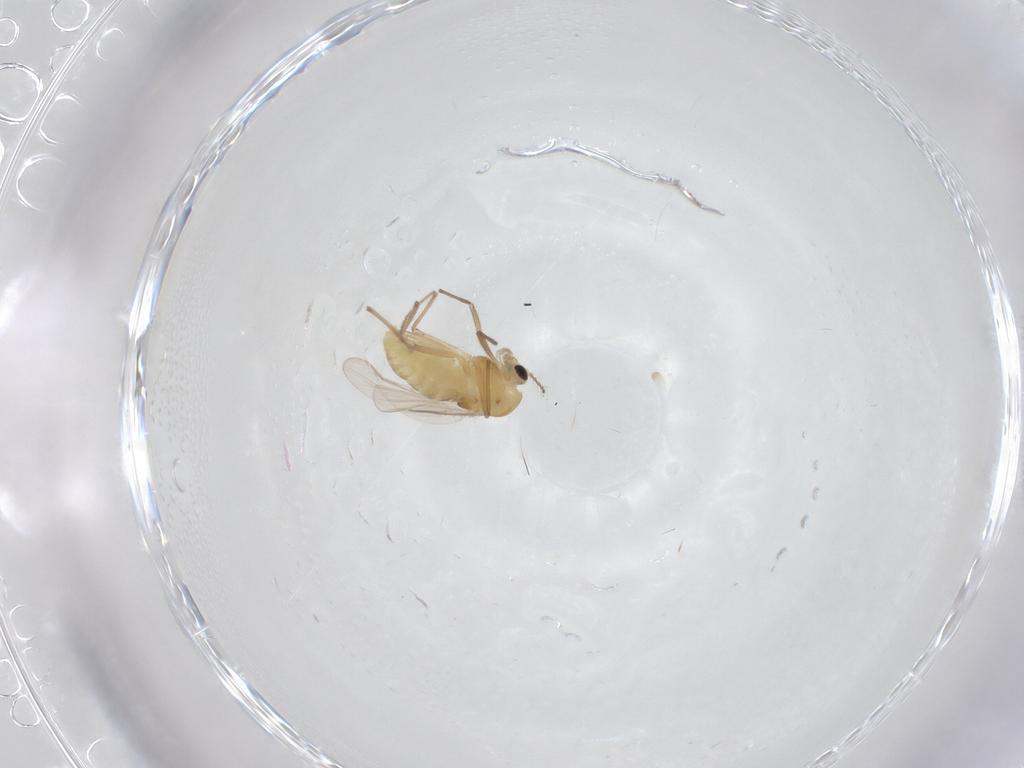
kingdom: Animalia
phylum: Arthropoda
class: Insecta
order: Diptera
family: Chironomidae
